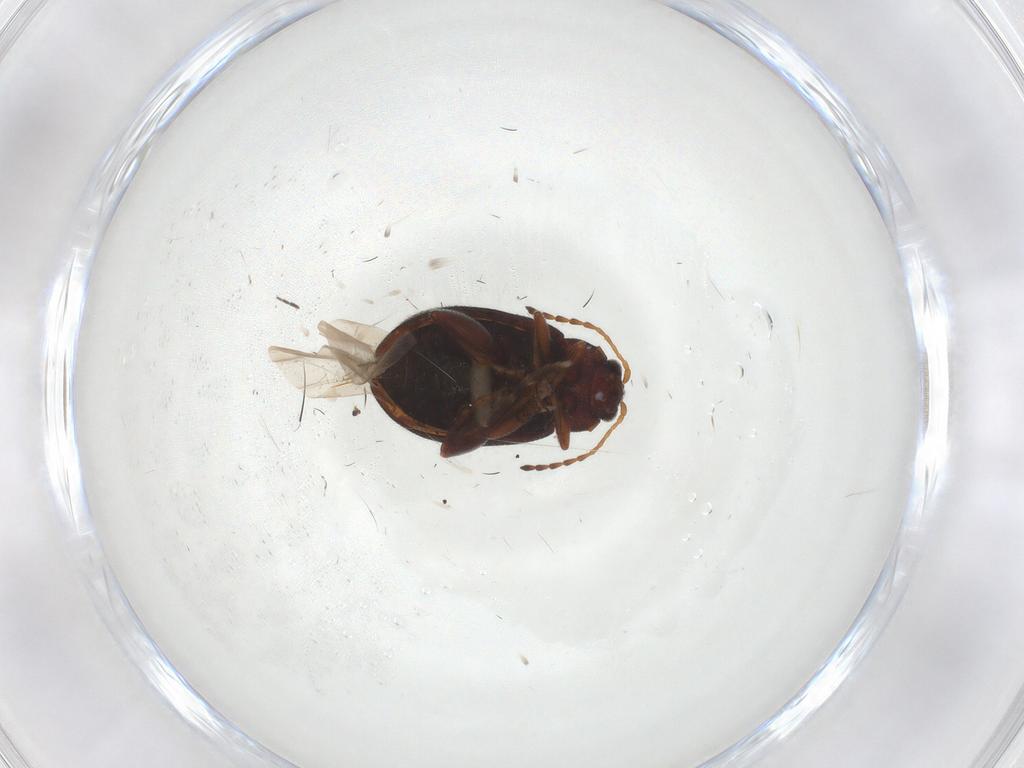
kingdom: Animalia
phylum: Arthropoda
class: Insecta
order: Coleoptera
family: Chrysomelidae
